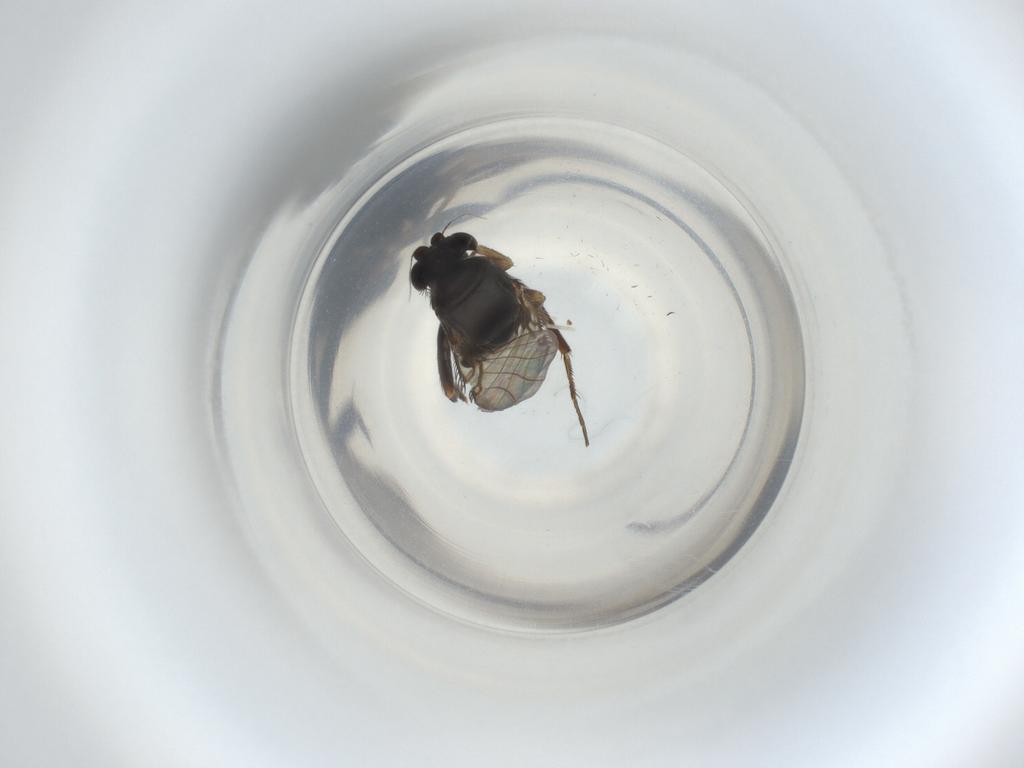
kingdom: Animalia
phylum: Arthropoda
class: Insecta
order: Diptera
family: Phoridae
